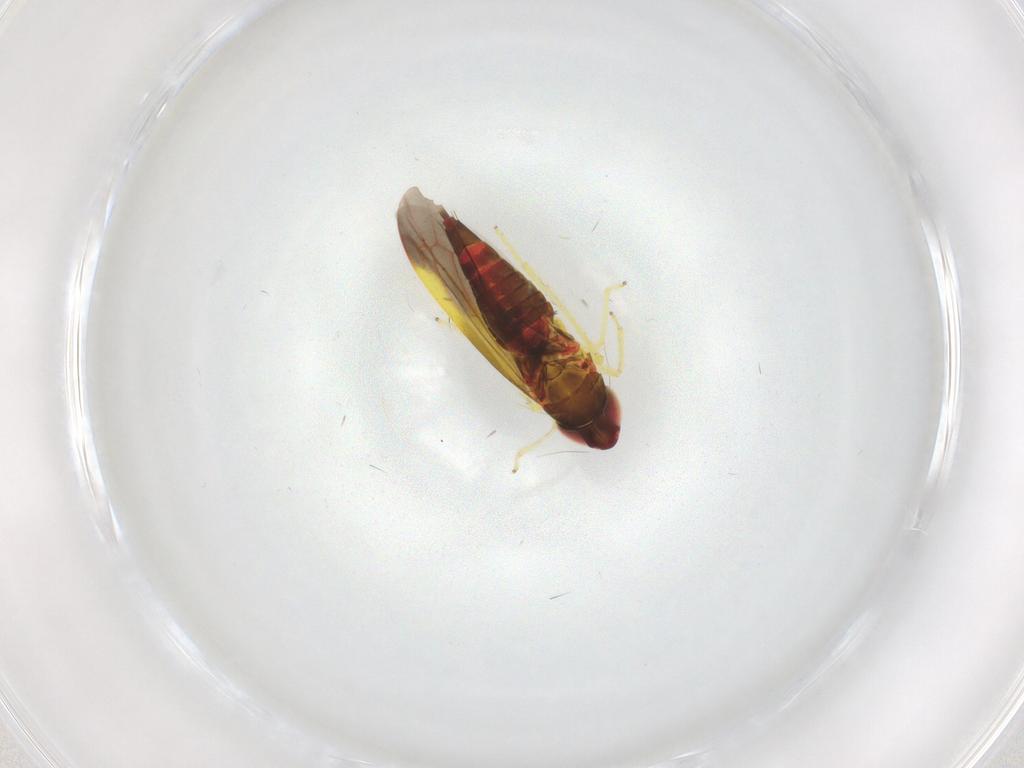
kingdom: Animalia
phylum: Arthropoda
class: Insecta
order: Hemiptera
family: Cicadellidae
